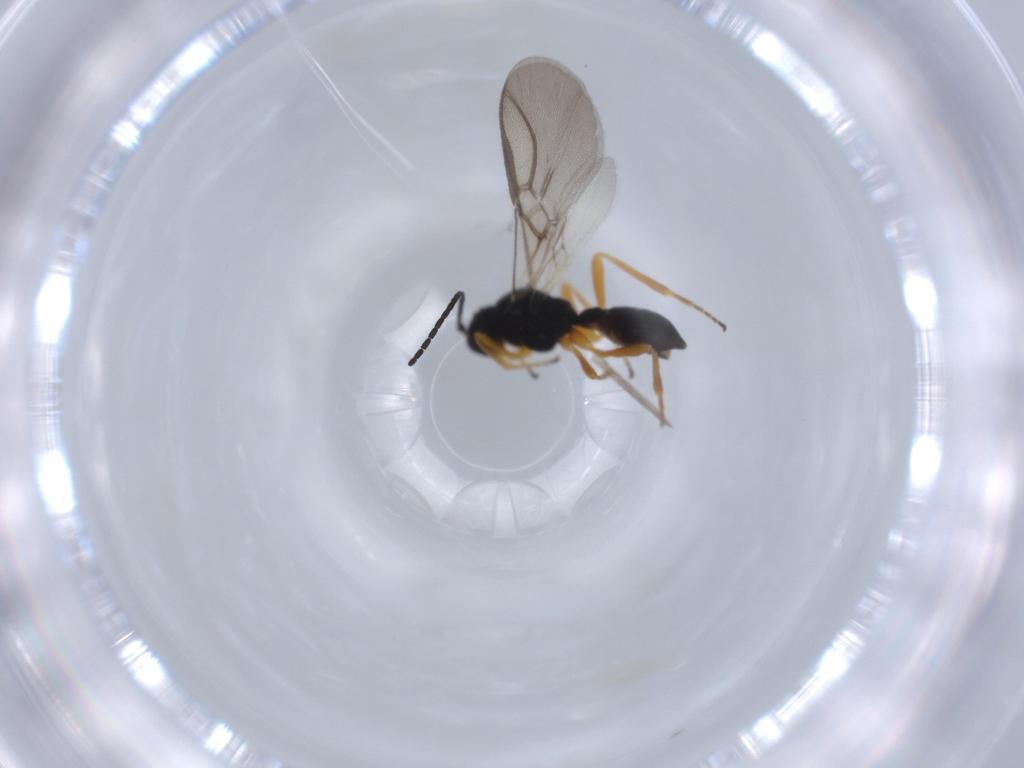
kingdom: Animalia
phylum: Arthropoda
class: Insecta
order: Hymenoptera
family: Braconidae
